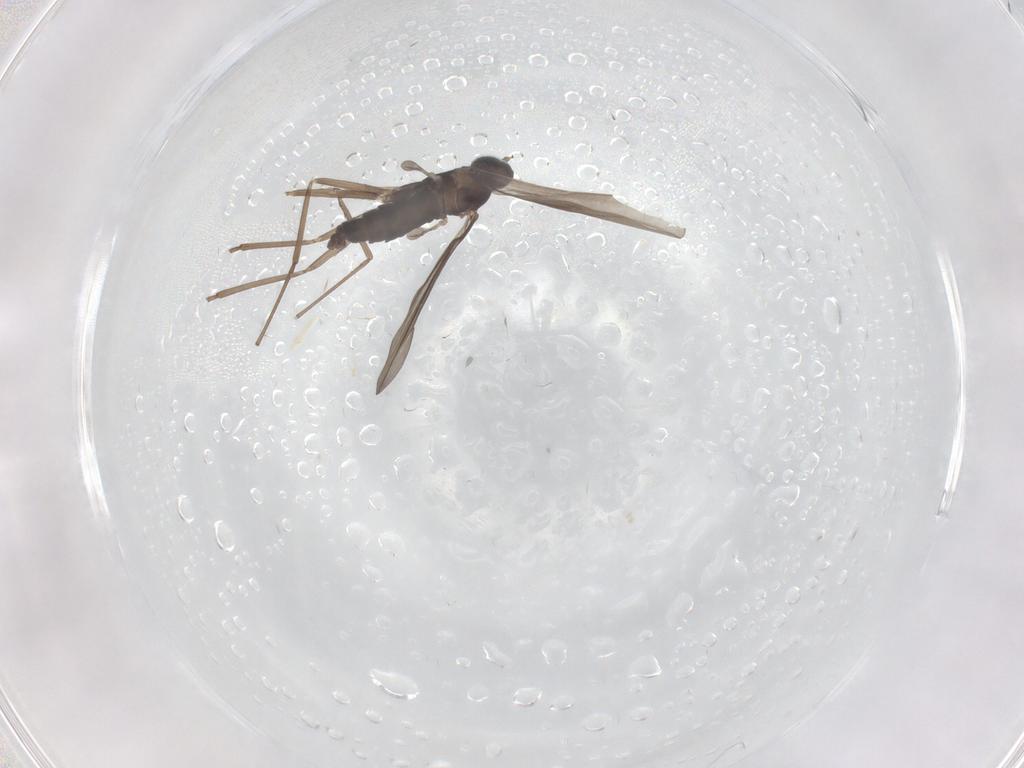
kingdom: Animalia
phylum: Arthropoda
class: Insecta
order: Diptera
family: Cecidomyiidae
